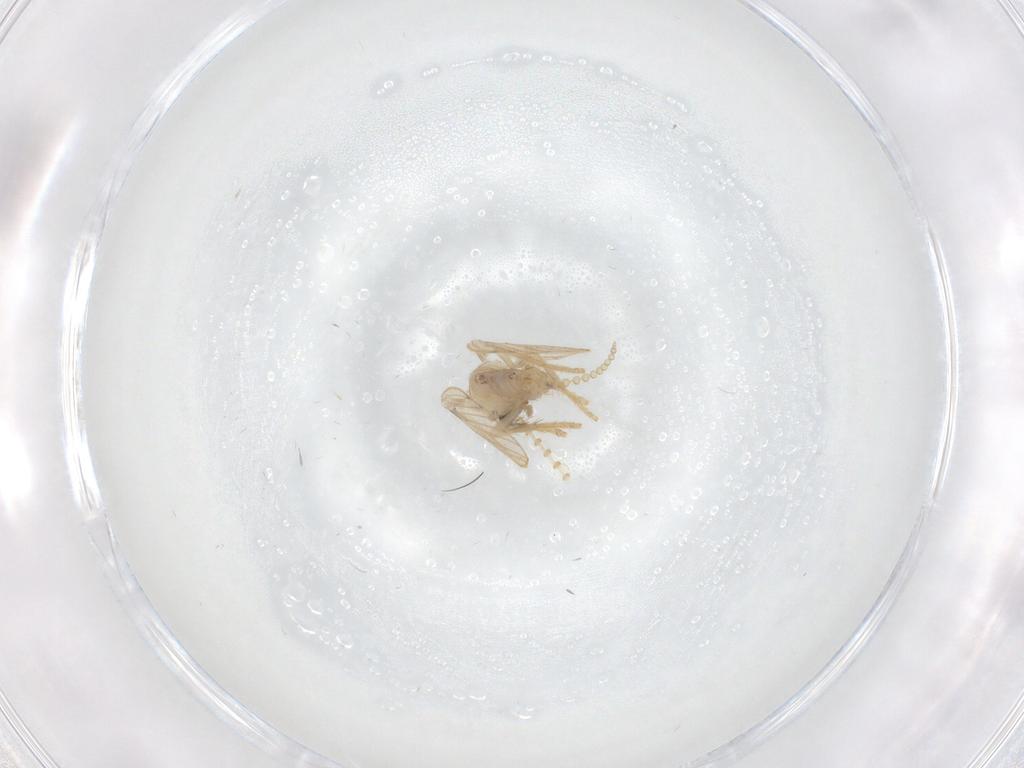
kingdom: Animalia
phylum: Arthropoda
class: Insecta
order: Diptera
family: Psychodidae
